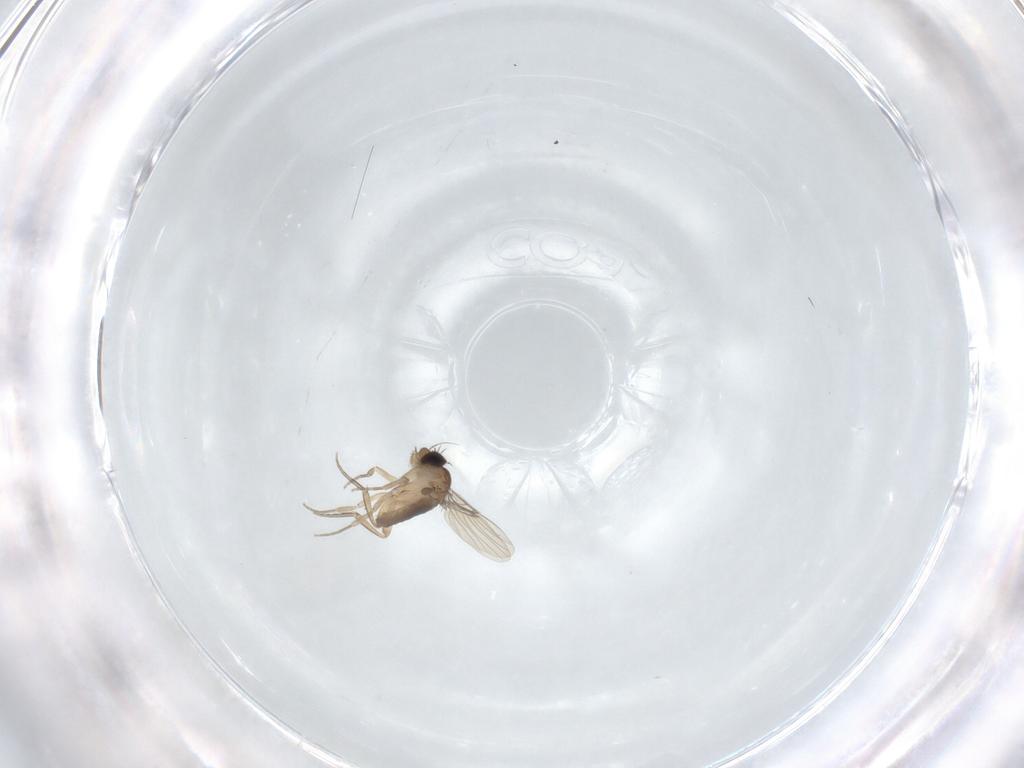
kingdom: Animalia
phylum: Arthropoda
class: Insecta
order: Diptera
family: Phoridae
